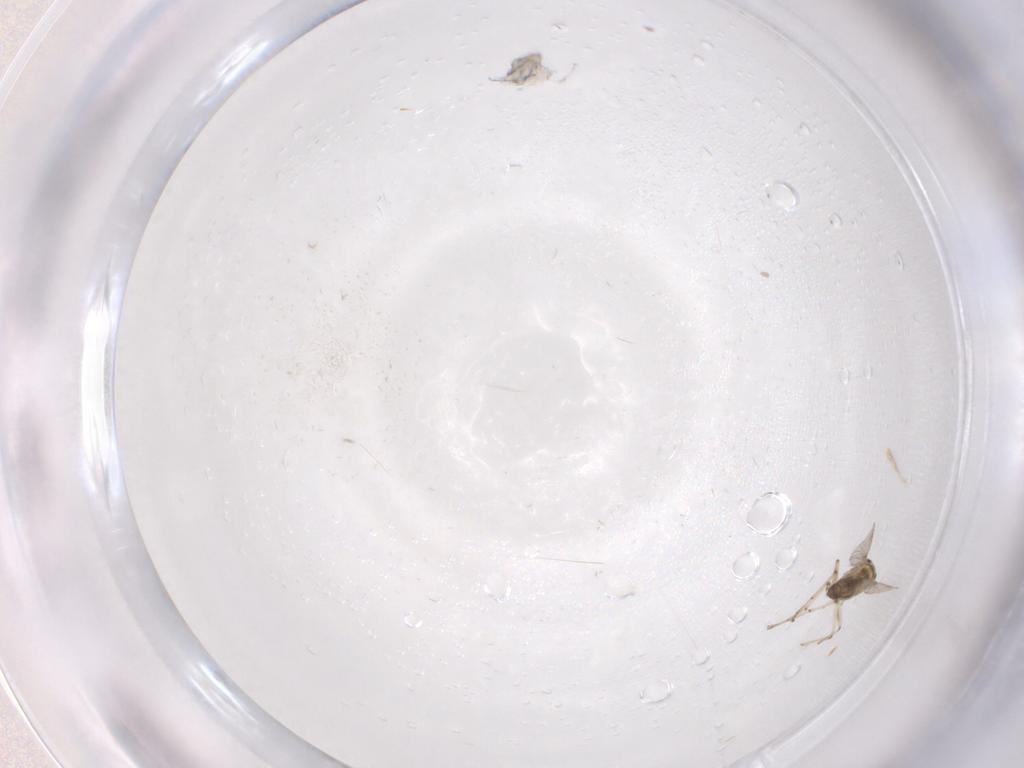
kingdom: Animalia
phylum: Arthropoda
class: Insecta
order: Diptera
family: Chironomidae
